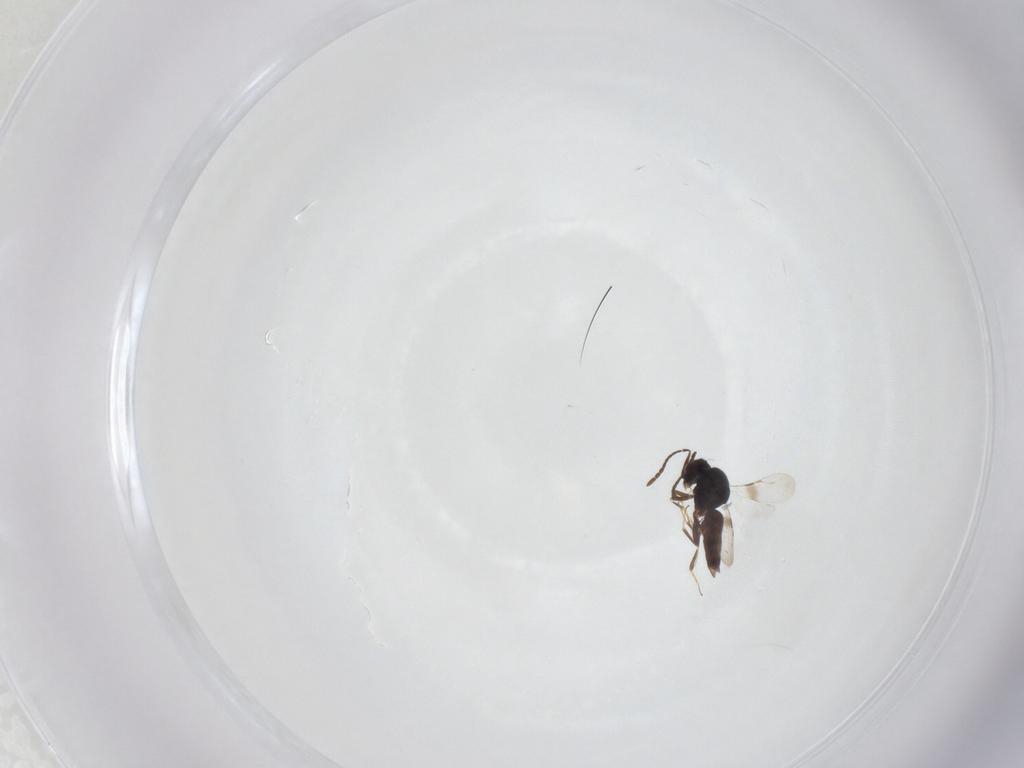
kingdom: Animalia
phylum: Arthropoda
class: Insecta
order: Hymenoptera
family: Ceraphronidae
